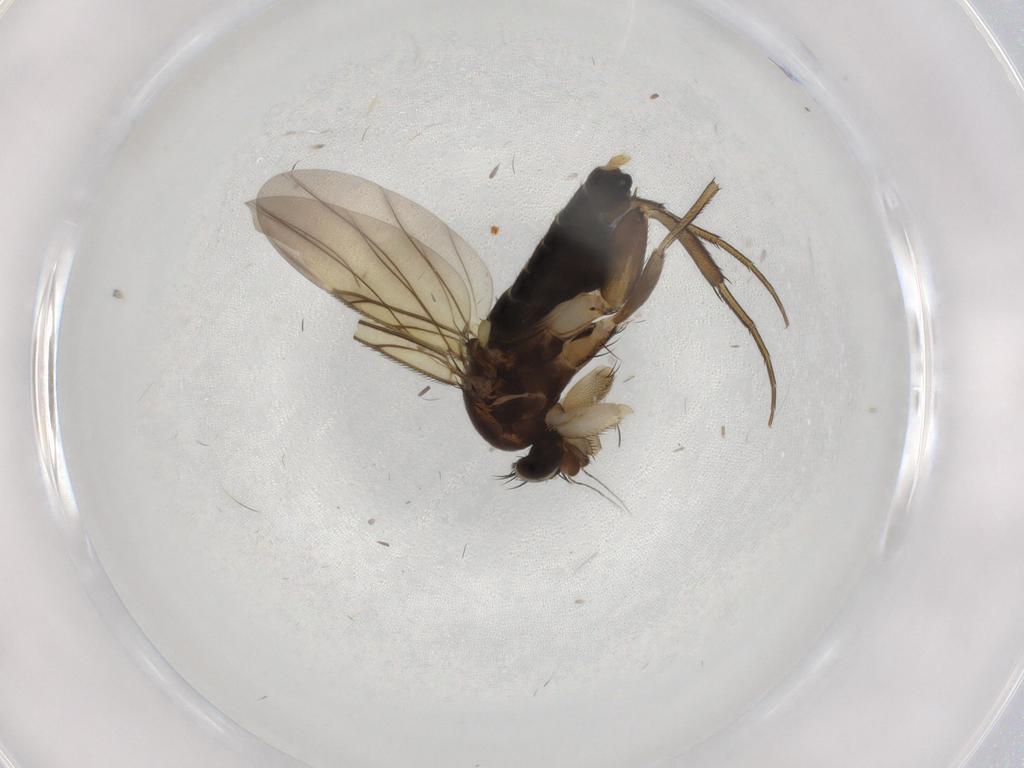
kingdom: Animalia
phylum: Arthropoda
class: Insecta
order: Diptera
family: Phoridae
